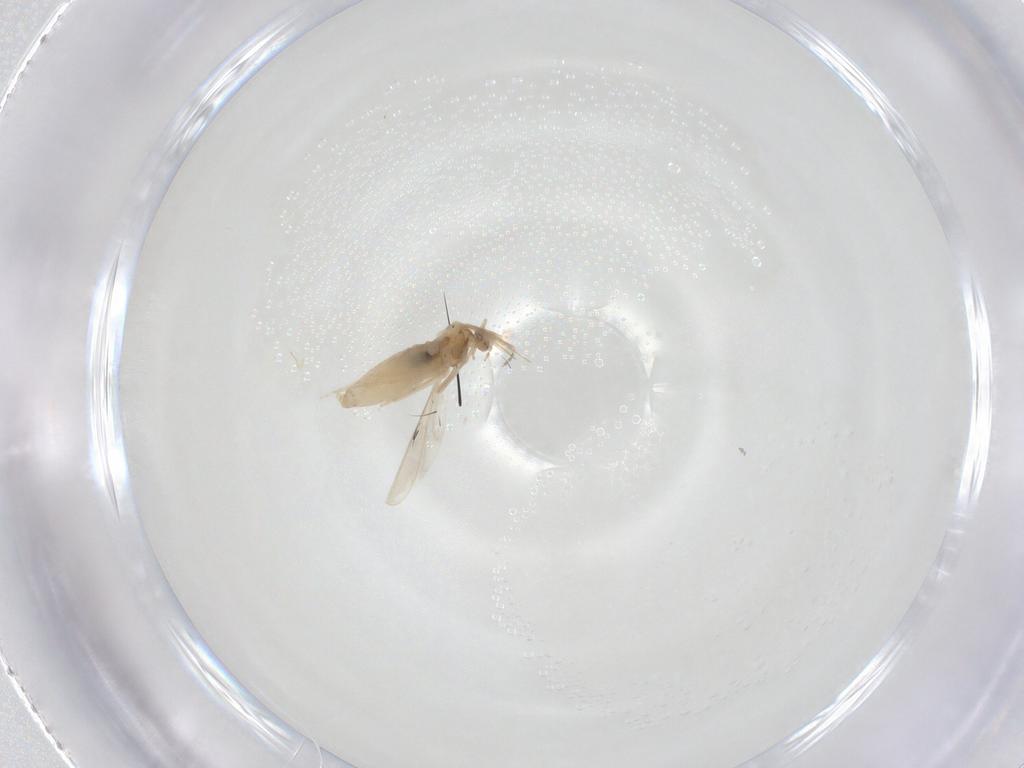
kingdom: Animalia
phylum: Arthropoda
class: Insecta
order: Diptera
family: Cecidomyiidae
